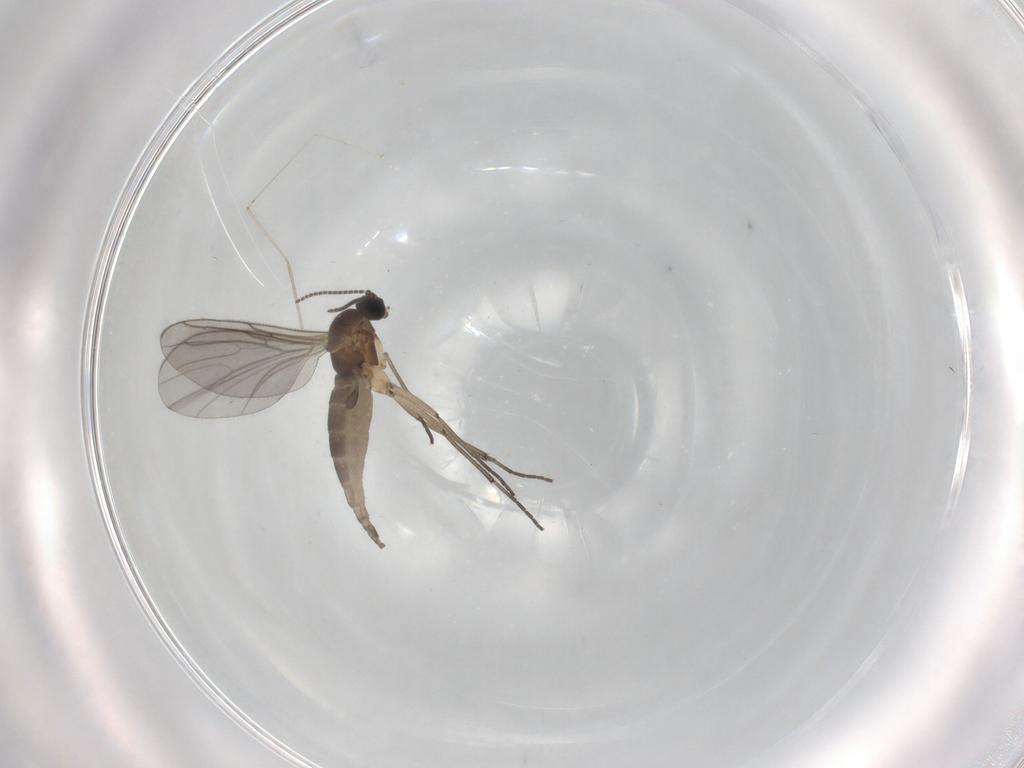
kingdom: Animalia
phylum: Arthropoda
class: Insecta
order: Diptera
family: Sciaridae
